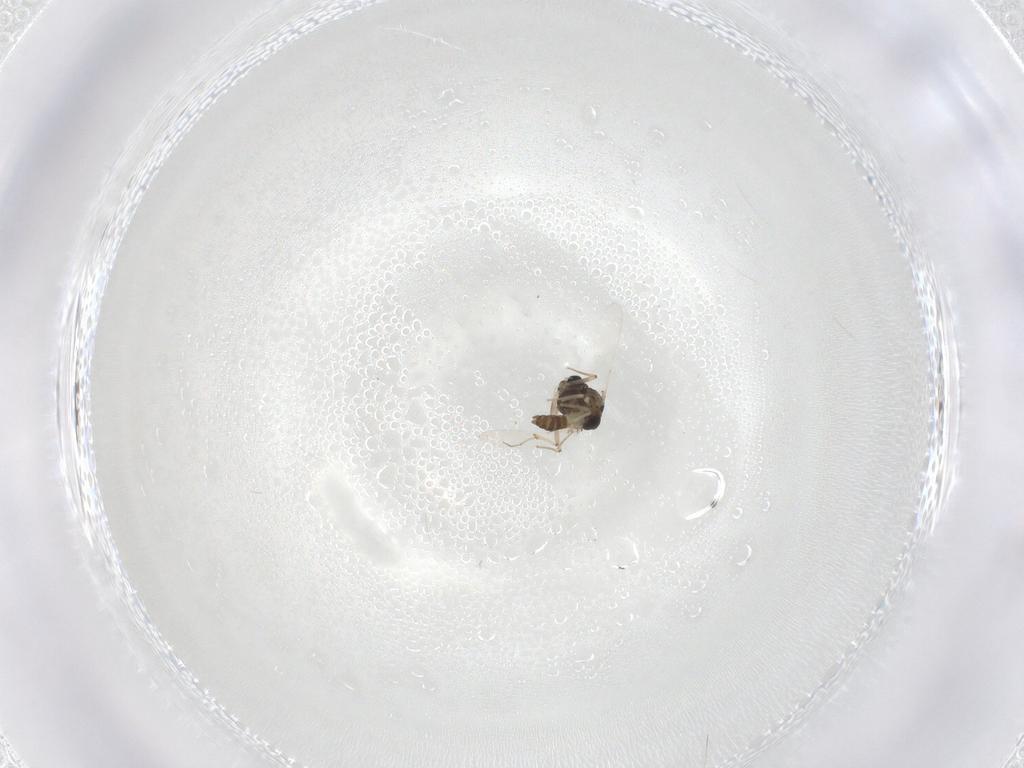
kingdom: Animalia
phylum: Arthropoda
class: Insecta
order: Diptera
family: Chironomidae
